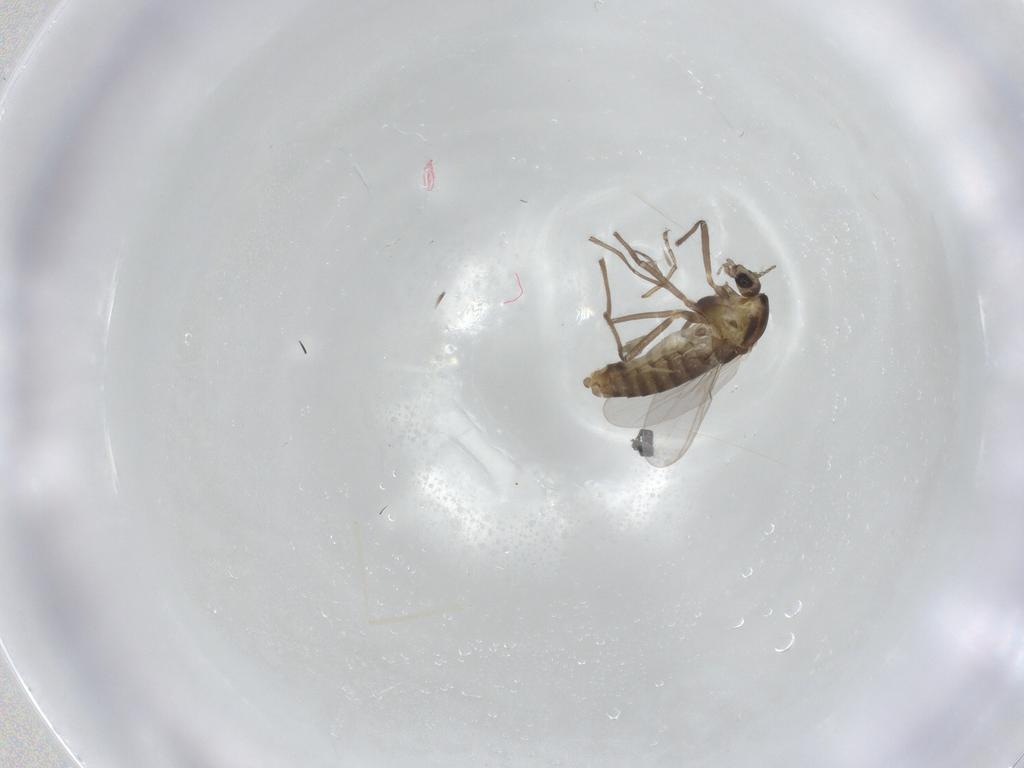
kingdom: Animalia
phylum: Arthropoda
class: Insecta
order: Diptera
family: Chironomidae
